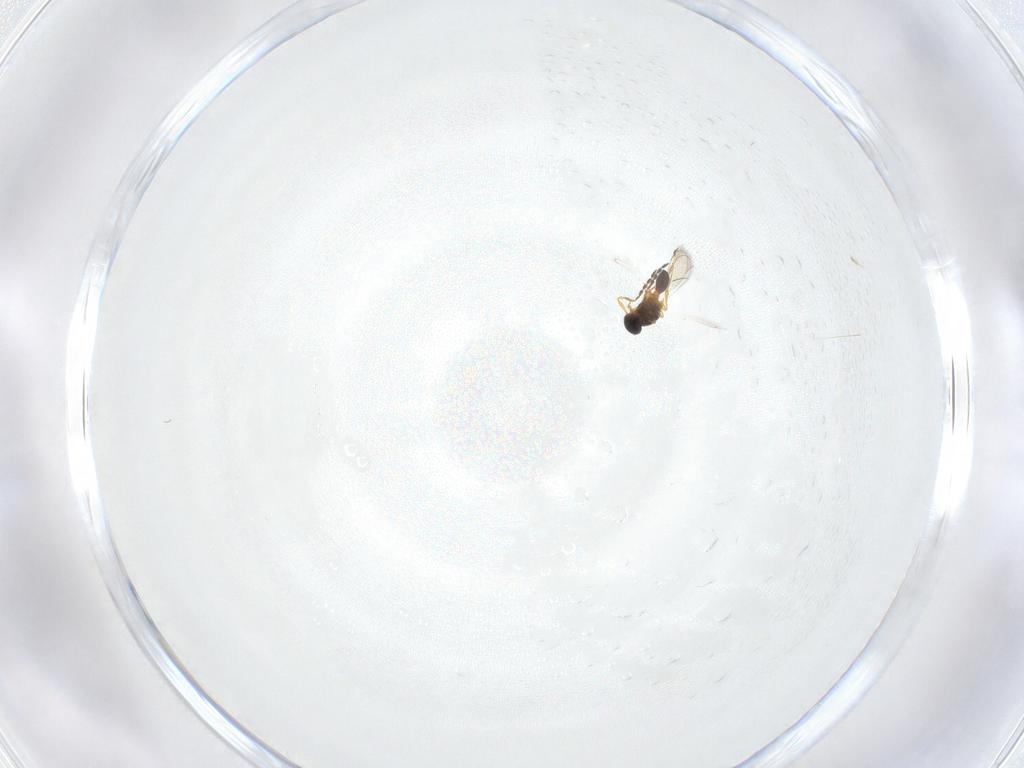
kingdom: Animalia
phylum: Arthropoda
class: Insecta
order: Hymenoptera
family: Platygastridae
